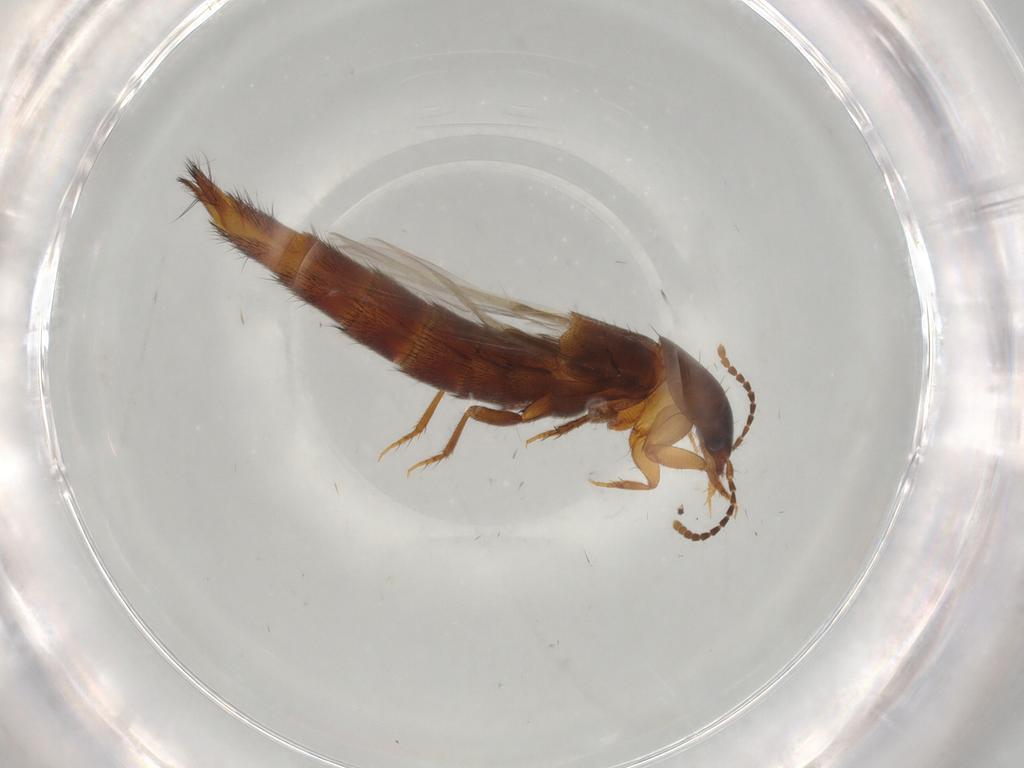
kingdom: Animalia
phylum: Arthropoda
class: Insecta
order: Coleoptera
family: Staphylinidae
